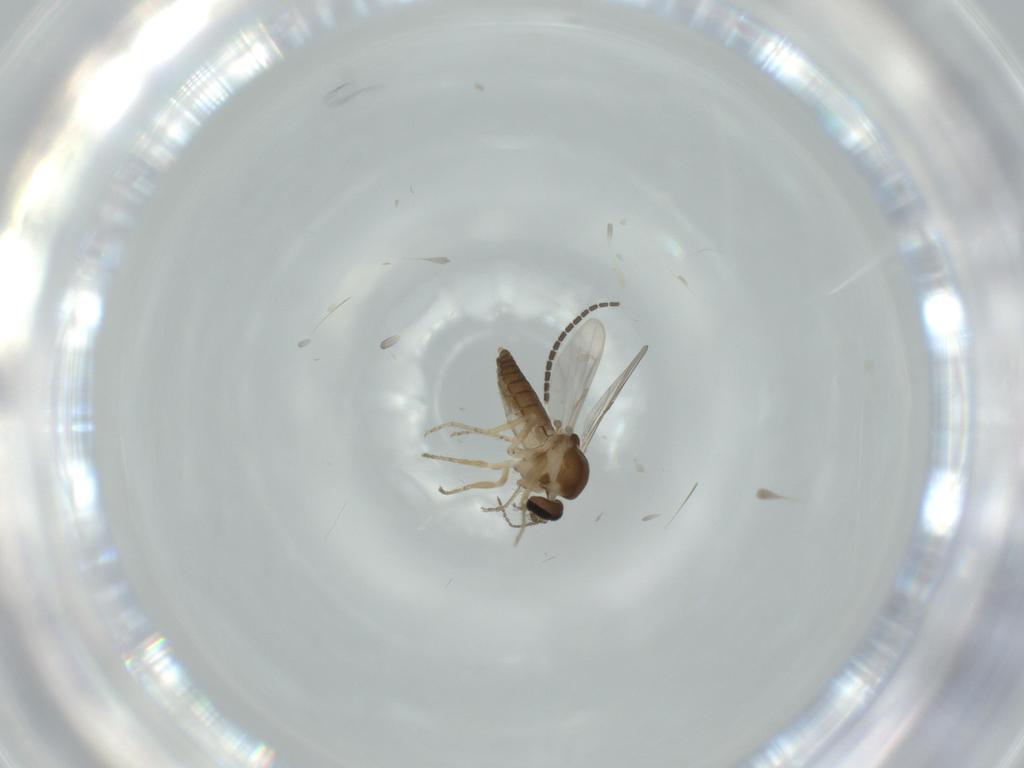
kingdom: Animalia
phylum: Arthropoda
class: Insecta
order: Diptera
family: Ceratopogonidae
